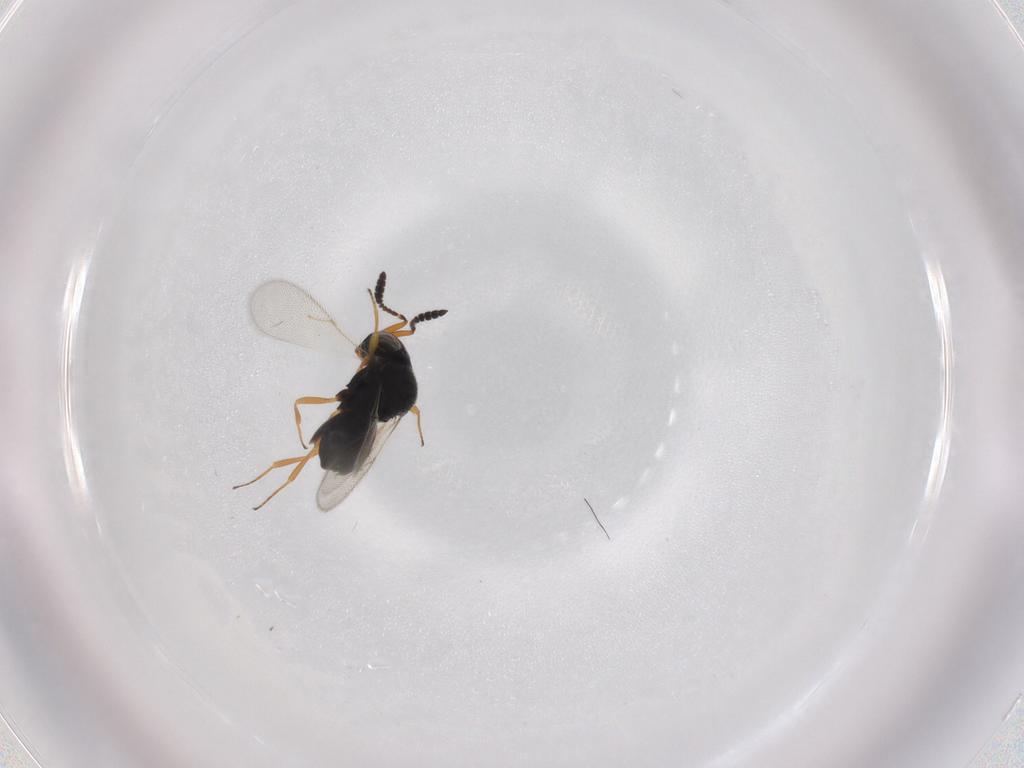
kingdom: Animalia
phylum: Arthropoda
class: Insecta
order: Hymenoptera
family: Scelionidae
